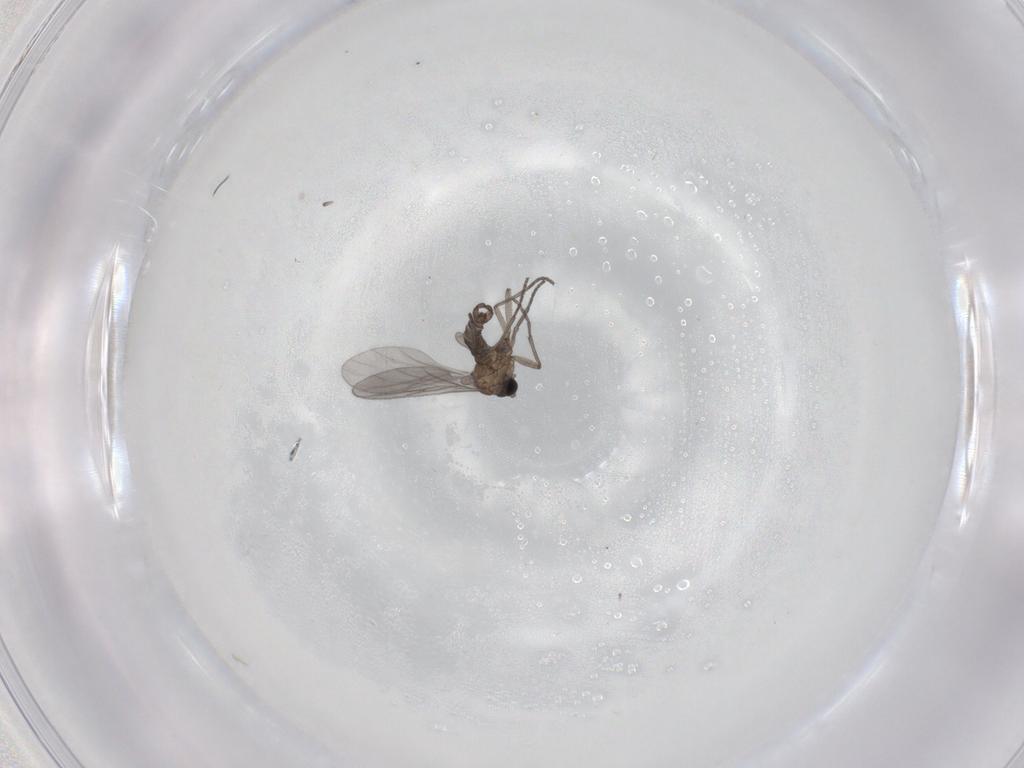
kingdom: Animalia
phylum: Arthropoda
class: Insecta
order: Diptera
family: Sciaridae
